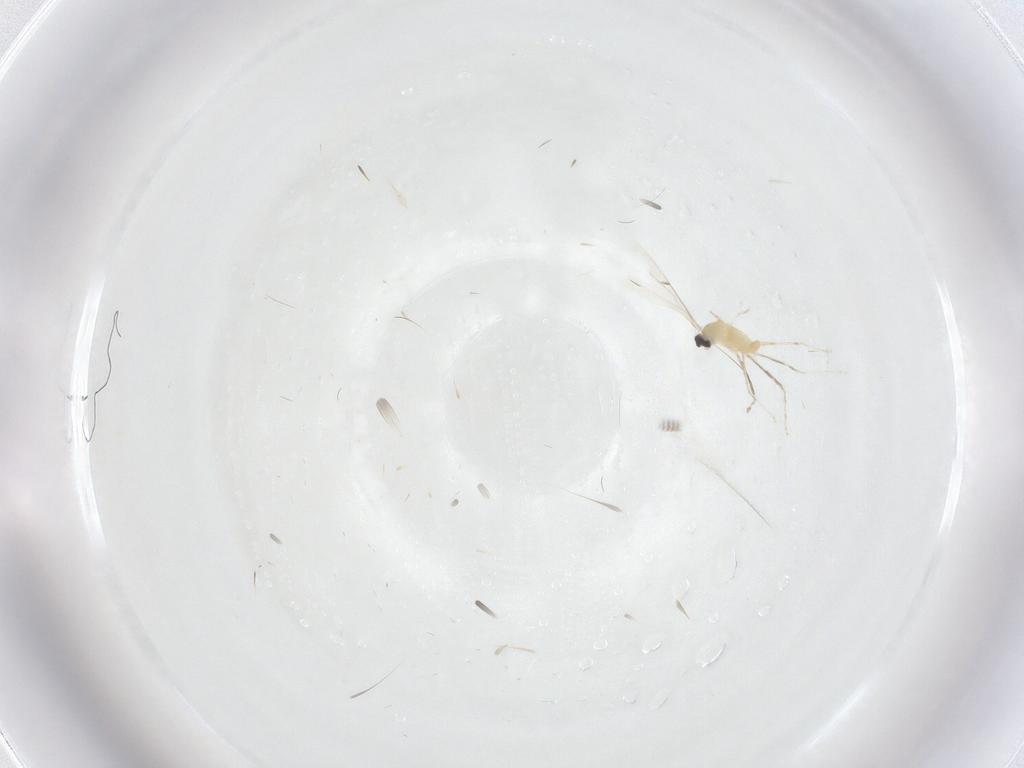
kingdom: Animalia
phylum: Arthropoda
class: Insecta
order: Diptera
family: Cecidomyiidae
